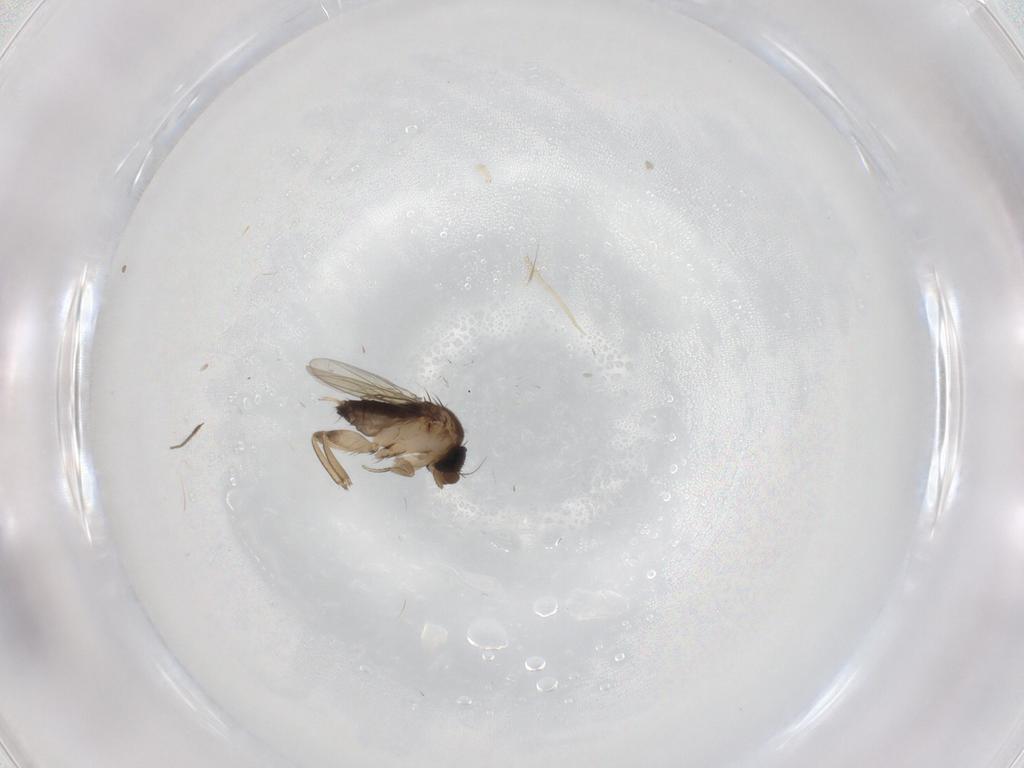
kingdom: Animalia
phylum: Arthropoda
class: Insecta
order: Diptera
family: Phoridae
